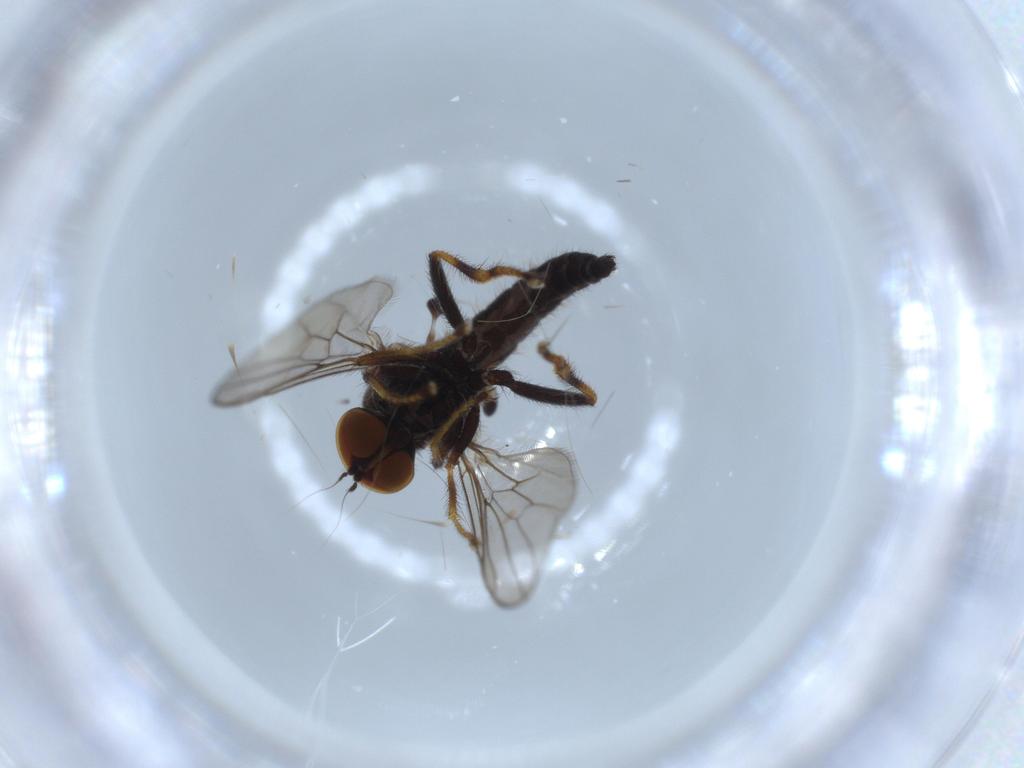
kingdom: Animalia
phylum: Arthropoda
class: Insecta
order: Diptera
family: Hybotidae
